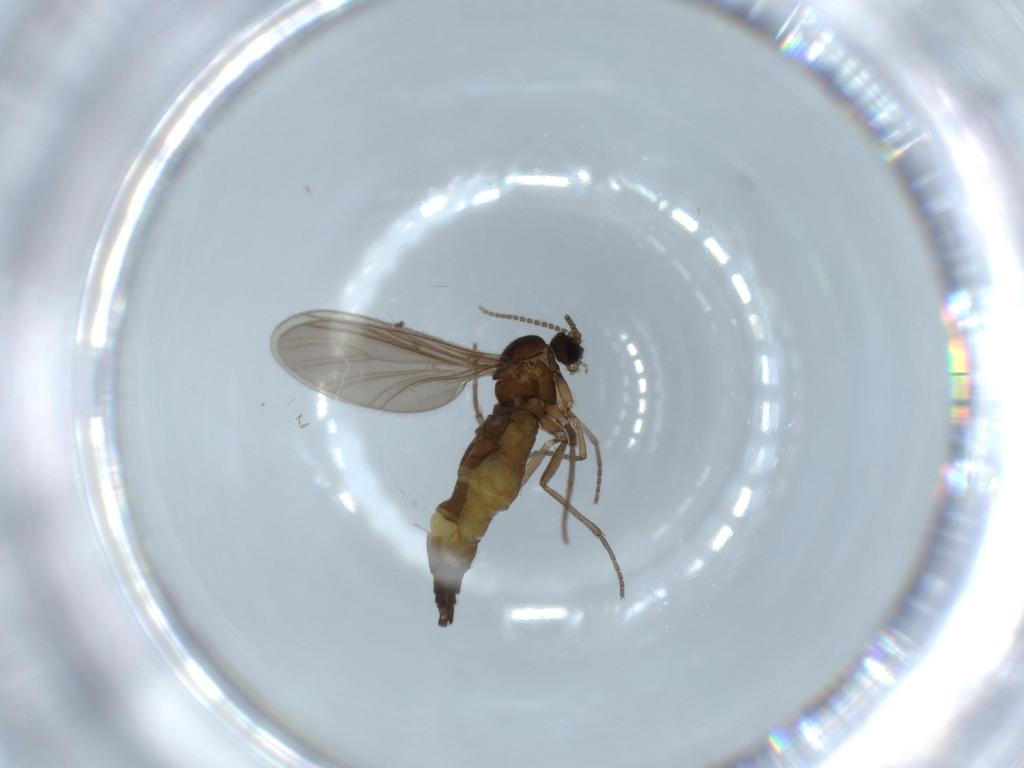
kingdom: Animalia
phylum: Arthropoda
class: Insecta
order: Diptera
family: Sciaridae
